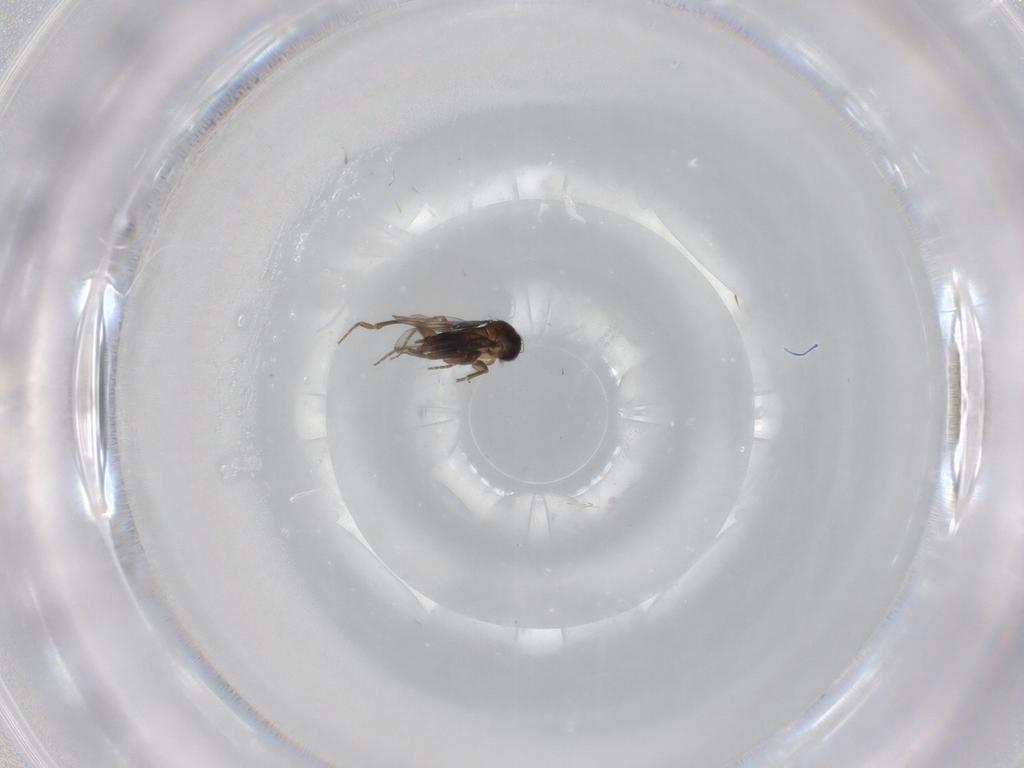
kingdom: Animalia
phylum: Arthropoda
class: Insecta
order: Diptera
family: Phoridae
